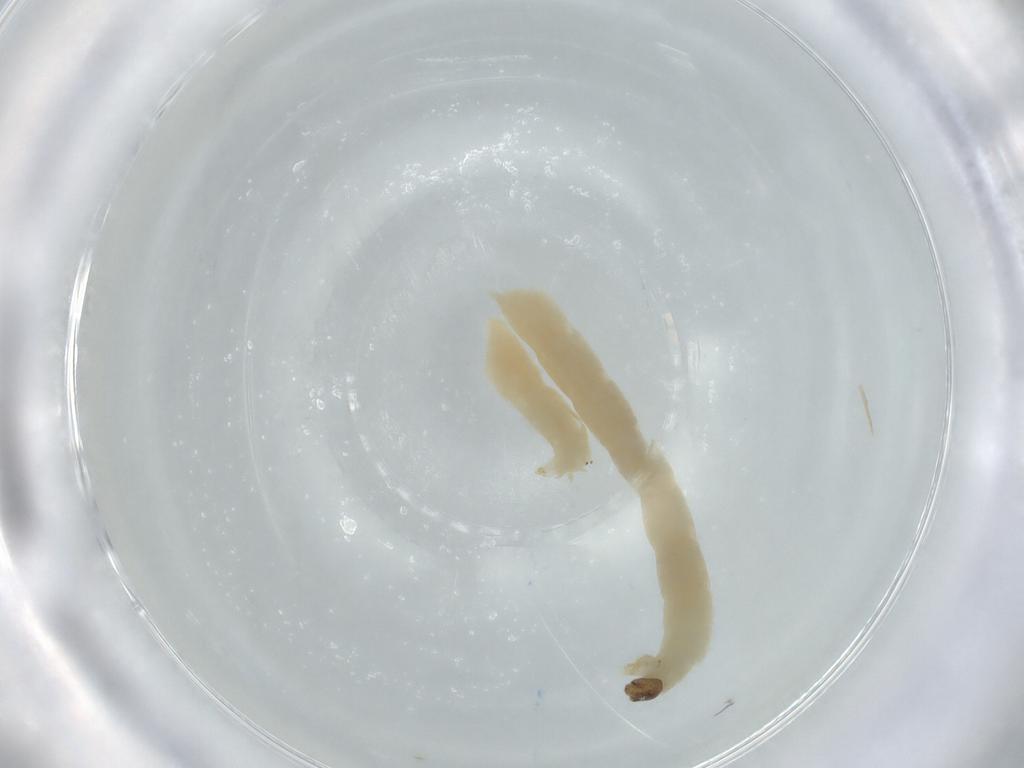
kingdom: Animalia
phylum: Arthropoda
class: Insecta
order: Diptera
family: Chironomidae
